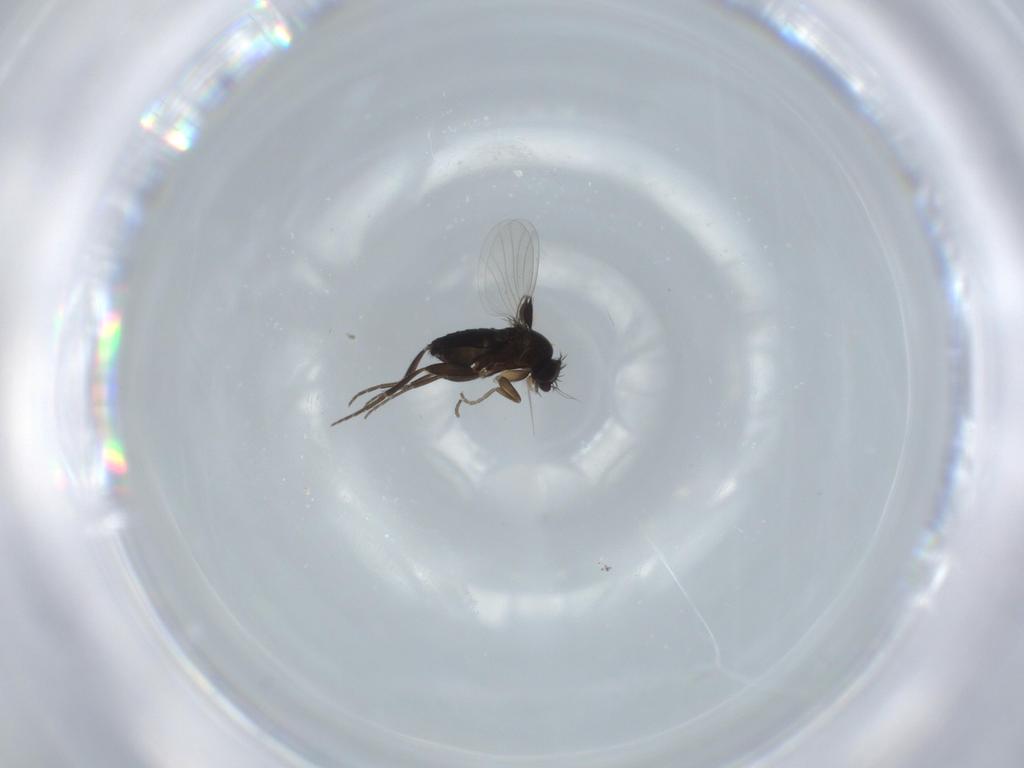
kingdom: Animalia
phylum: Arthropoda
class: Insecta
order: Diptera
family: Phoridae
